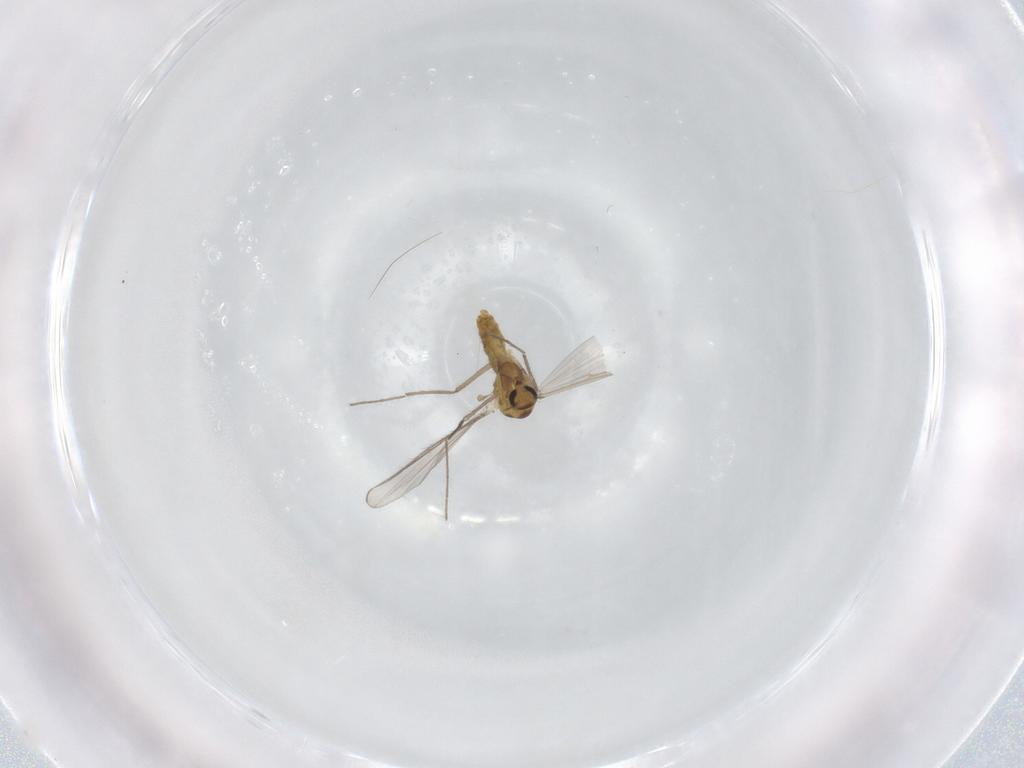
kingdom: Animalia
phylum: Arthropoda
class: Insecta
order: Diptera
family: Chironomidae
